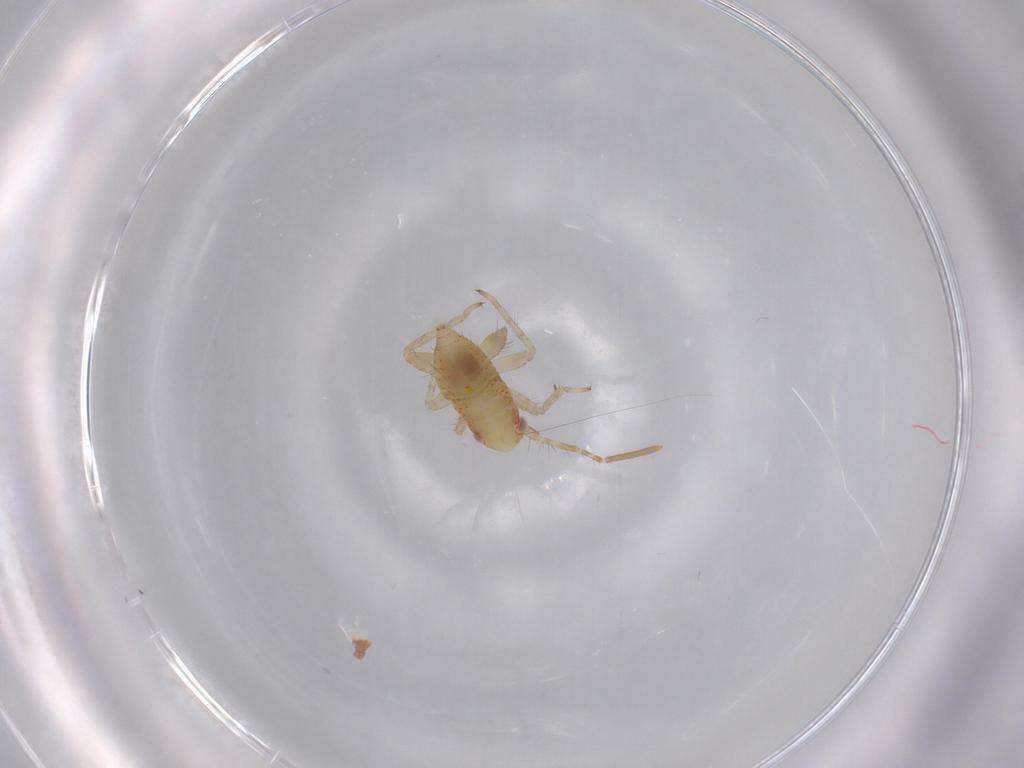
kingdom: Animalia
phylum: Arthropoda
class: Insecta
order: Hemiptera
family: Miridae
